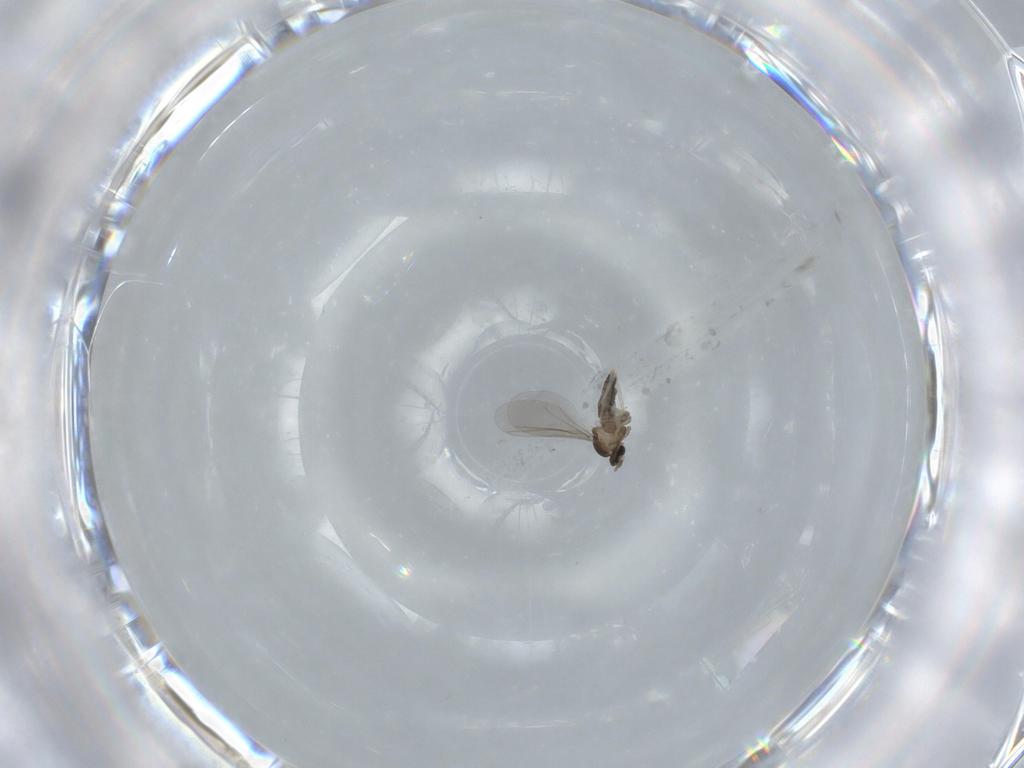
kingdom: Animalia
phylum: Arthropoda
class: Insecta
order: Diptera
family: Cecidomyiidae
